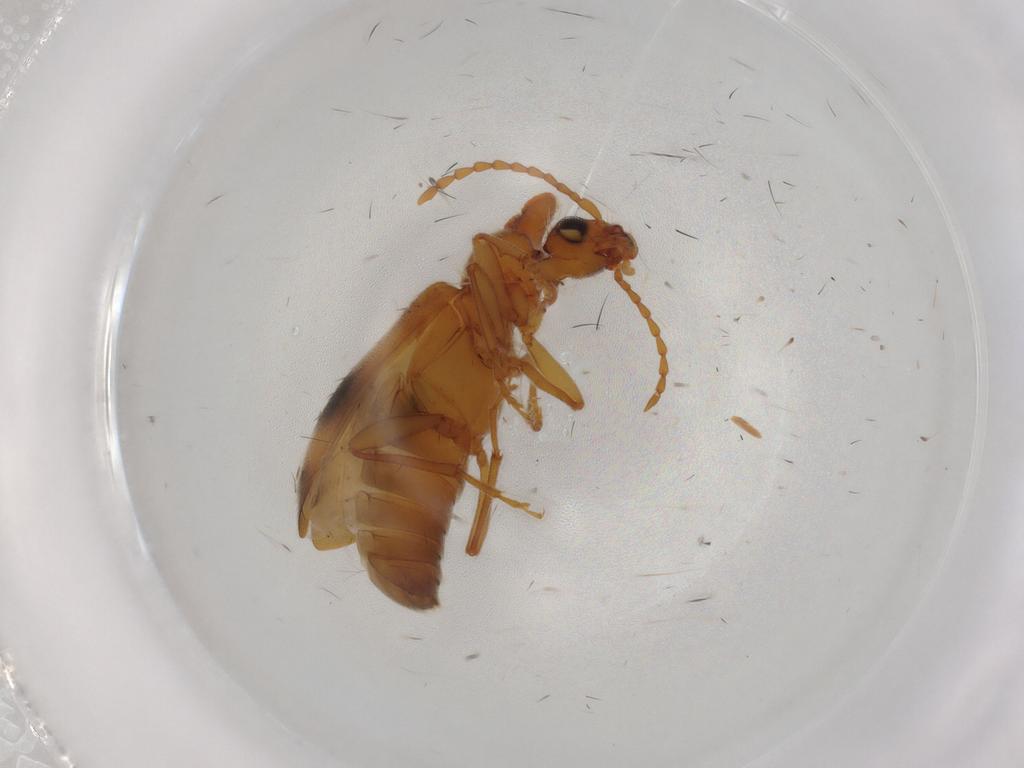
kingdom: Animalia
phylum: Arthropoda
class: Insecta
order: Coleoptera
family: Anthicidae
